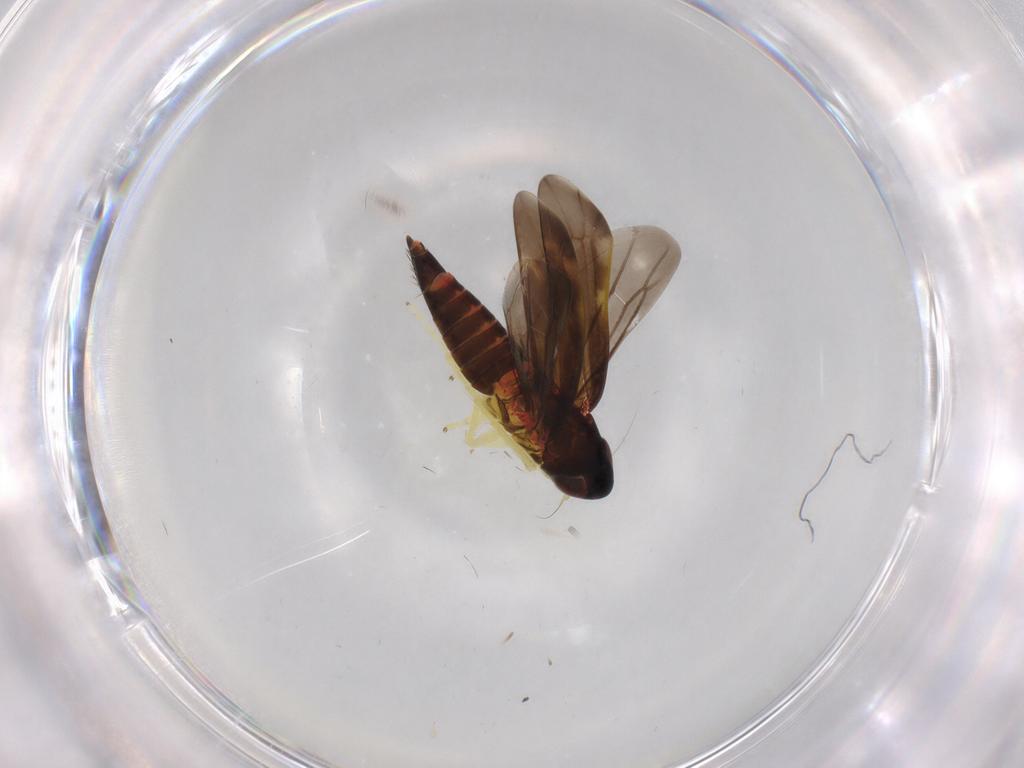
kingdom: Animalia
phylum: Arthropoda
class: Insecta
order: Hemiptera
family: Cicadellidae
